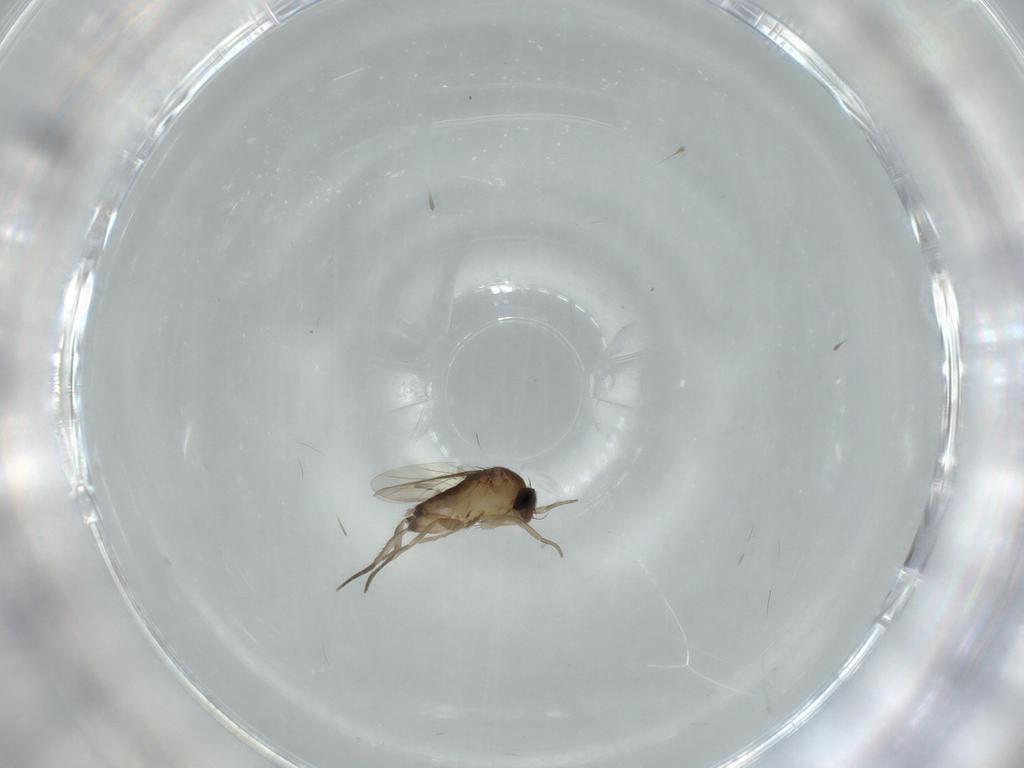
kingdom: Animalia
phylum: Arthropoda
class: Insecta
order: Diptera
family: Phoridae
